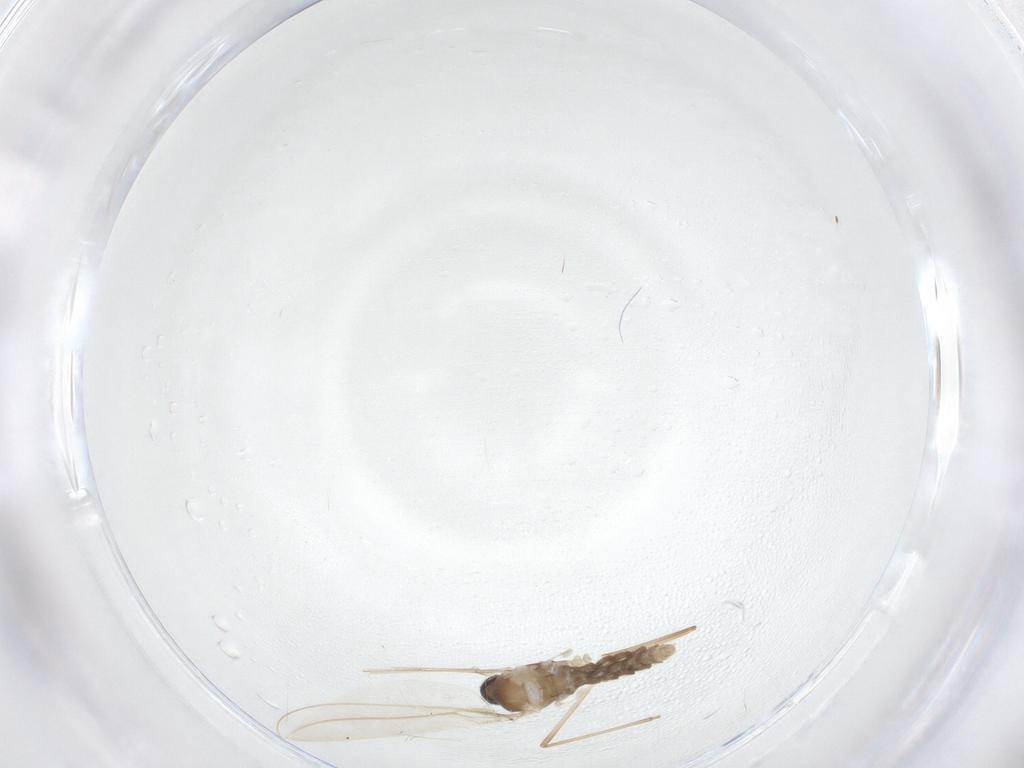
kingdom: Animalia
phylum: Arthropoda
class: Insecta
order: Diptera
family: Cecidomyiidae
